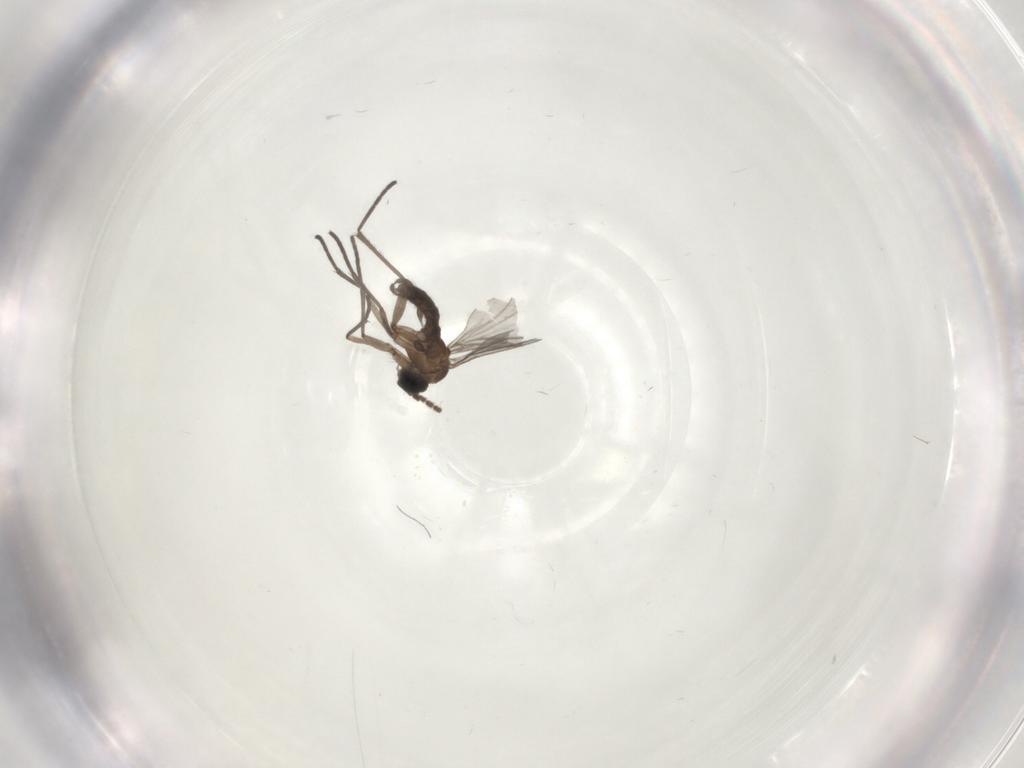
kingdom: Animalia
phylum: Arthropoda
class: Insecta
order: Diptera
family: Sciaridae
